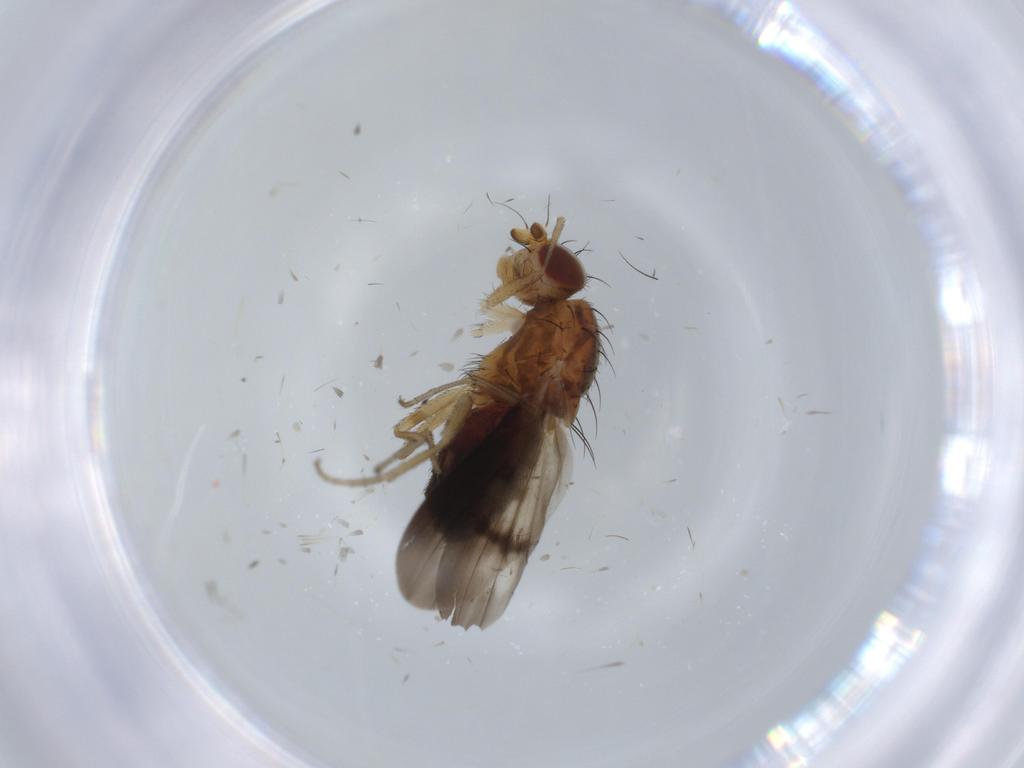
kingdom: Animalia
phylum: Arthropoda
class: Insecta
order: Diptera
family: Heleomyzidae
